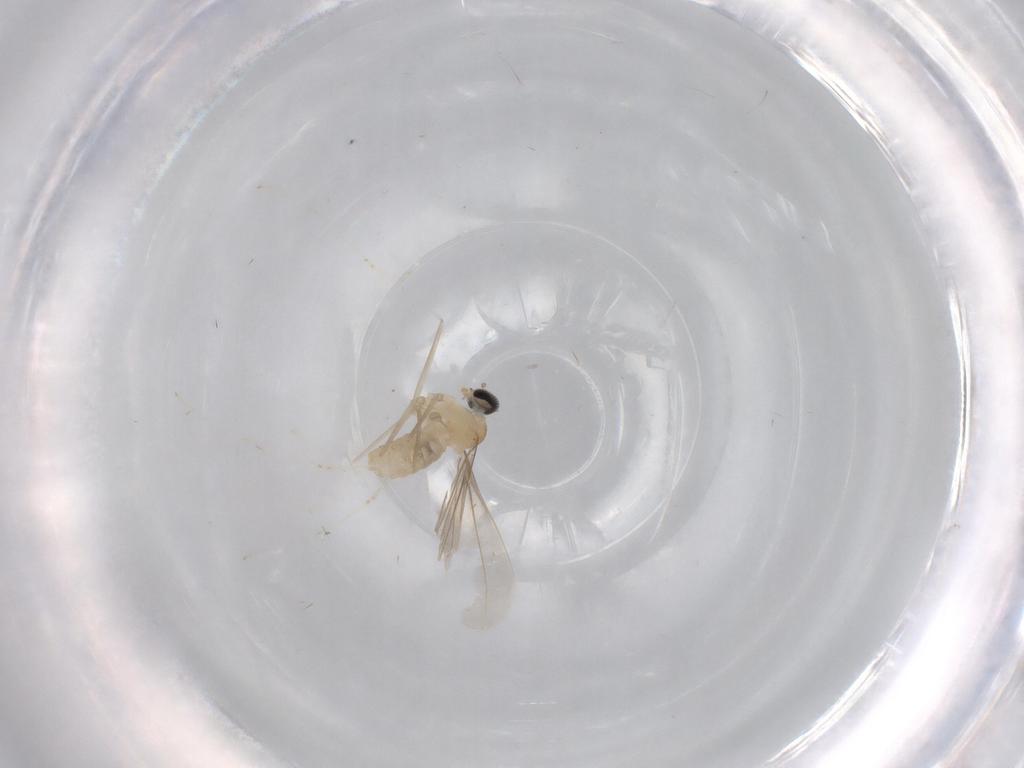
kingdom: Animalia
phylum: Arthropoda
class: Insecta
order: Diptera
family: Cecidomyiidae
